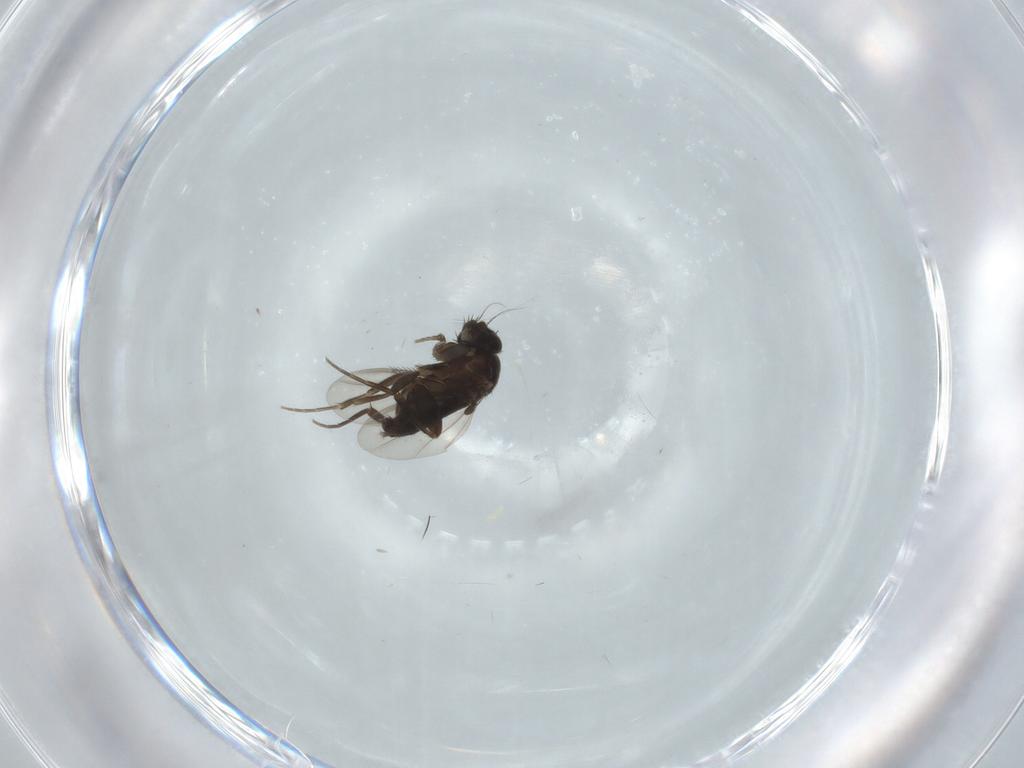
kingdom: Animalia
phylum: Arthropoda
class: Insecta
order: Diptera
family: Phoridae
